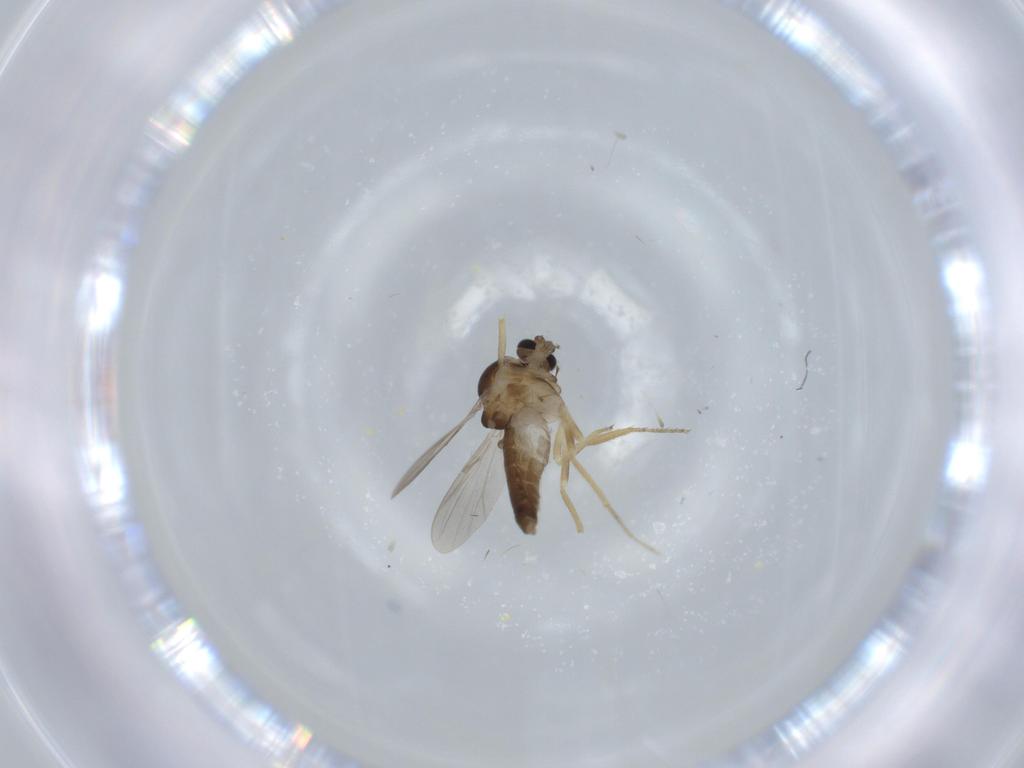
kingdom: Animalia
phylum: Arthropoda
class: Insecta
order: Diptera
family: Ceratopogonidae
